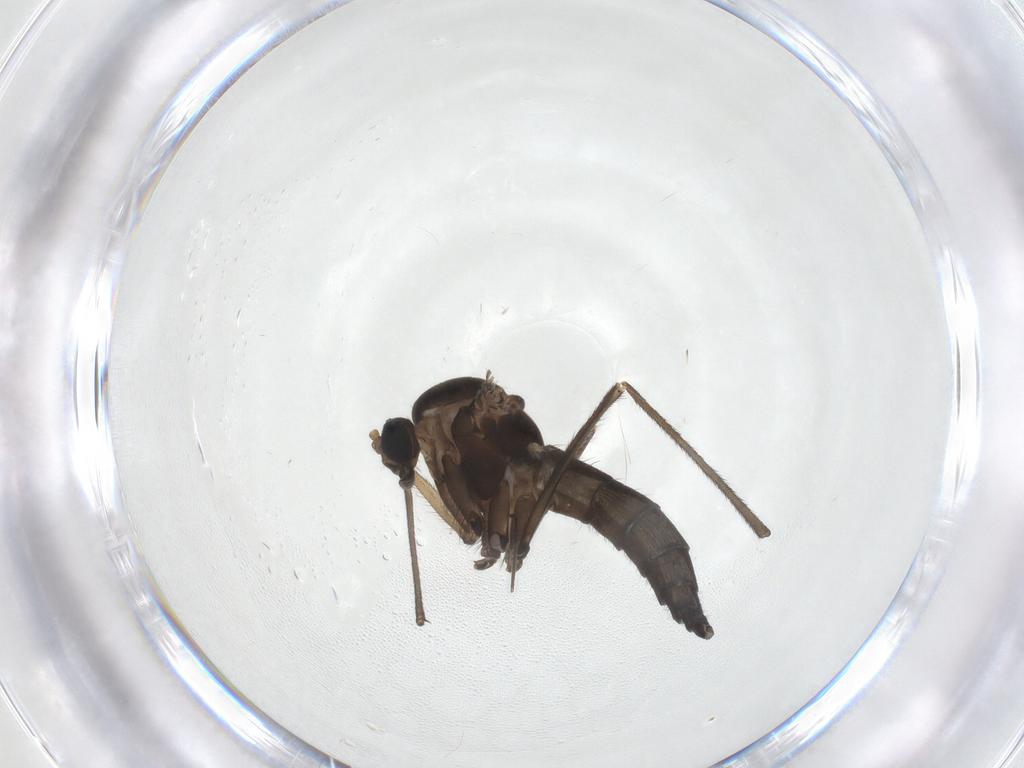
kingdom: Animalia
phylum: Arthropoda
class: Insecta
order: Diptera
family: Sciaridae
